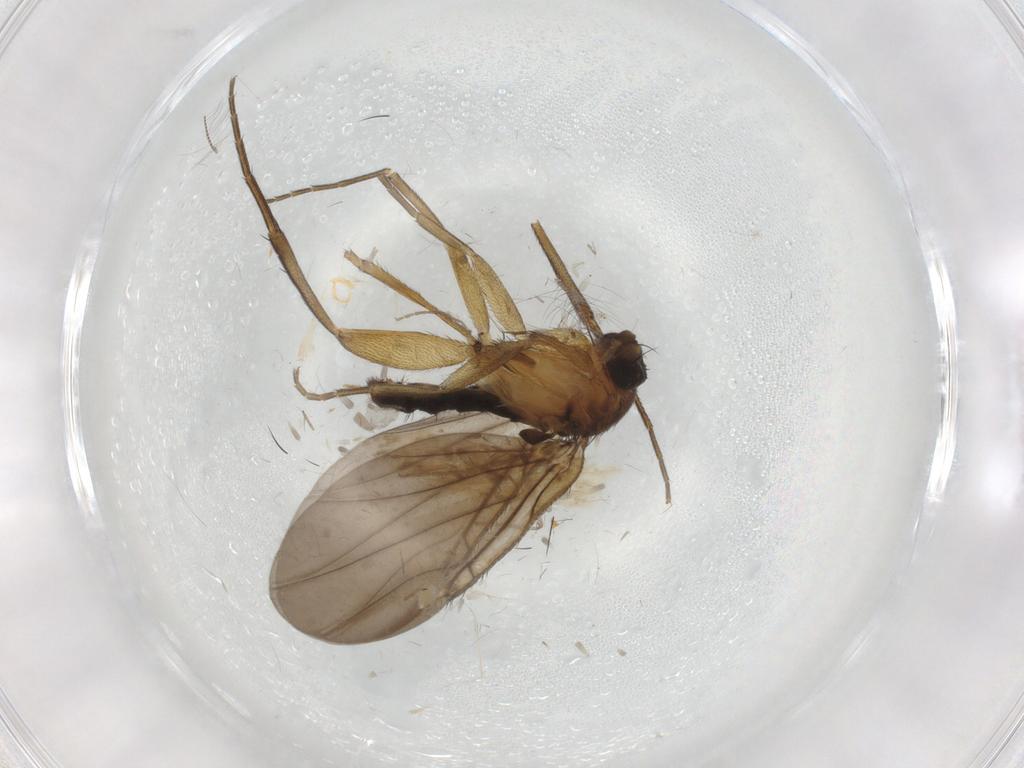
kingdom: Animalia
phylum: Arthropoda
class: Insecta
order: Diptera
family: Phoridae
